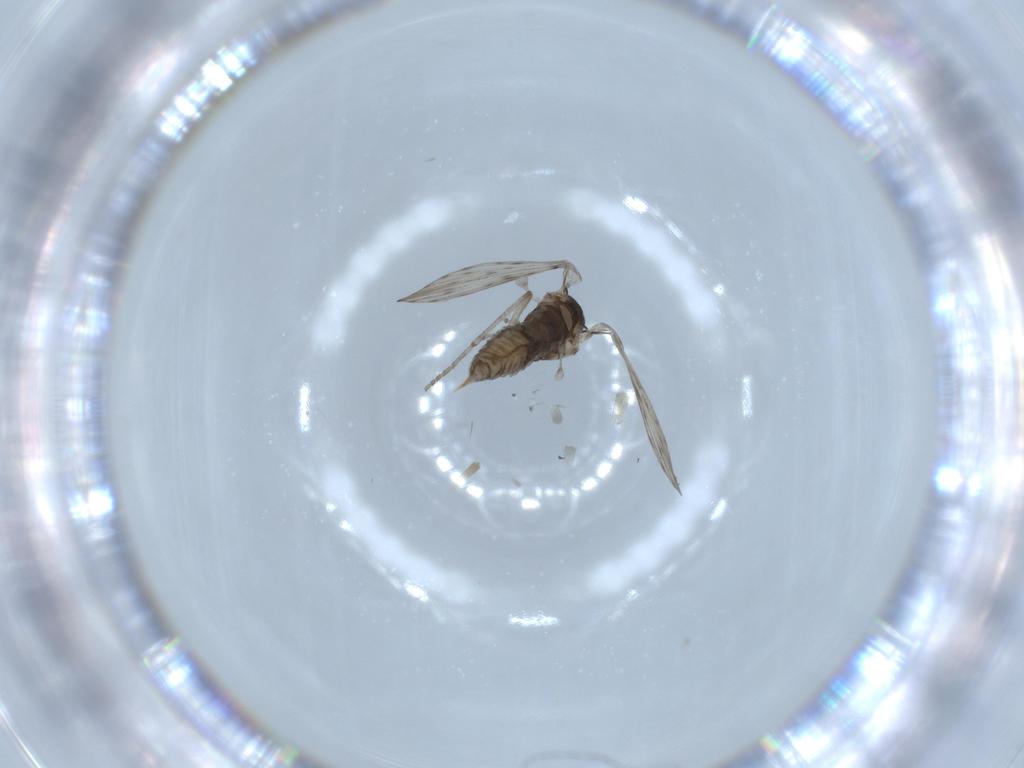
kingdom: Animalia
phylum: Arthropoda
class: Insecta
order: Diptera
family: Psychodidae
